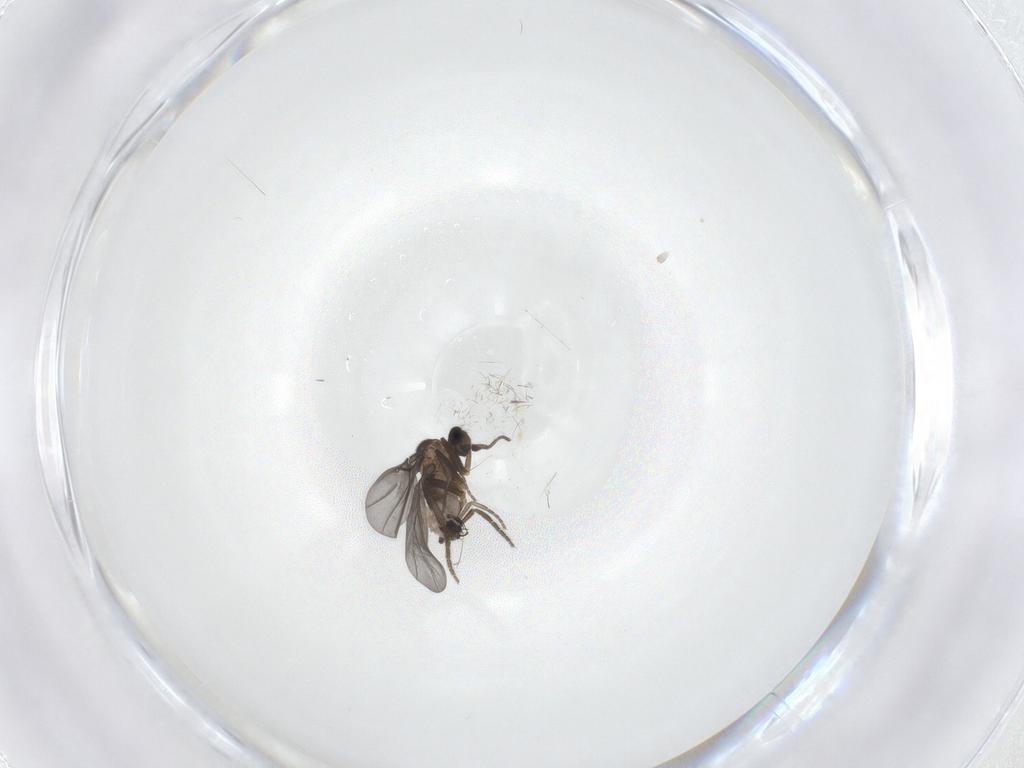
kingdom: Animalia
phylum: Arthropoda
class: Insecta
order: Diptera
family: Phoridae
